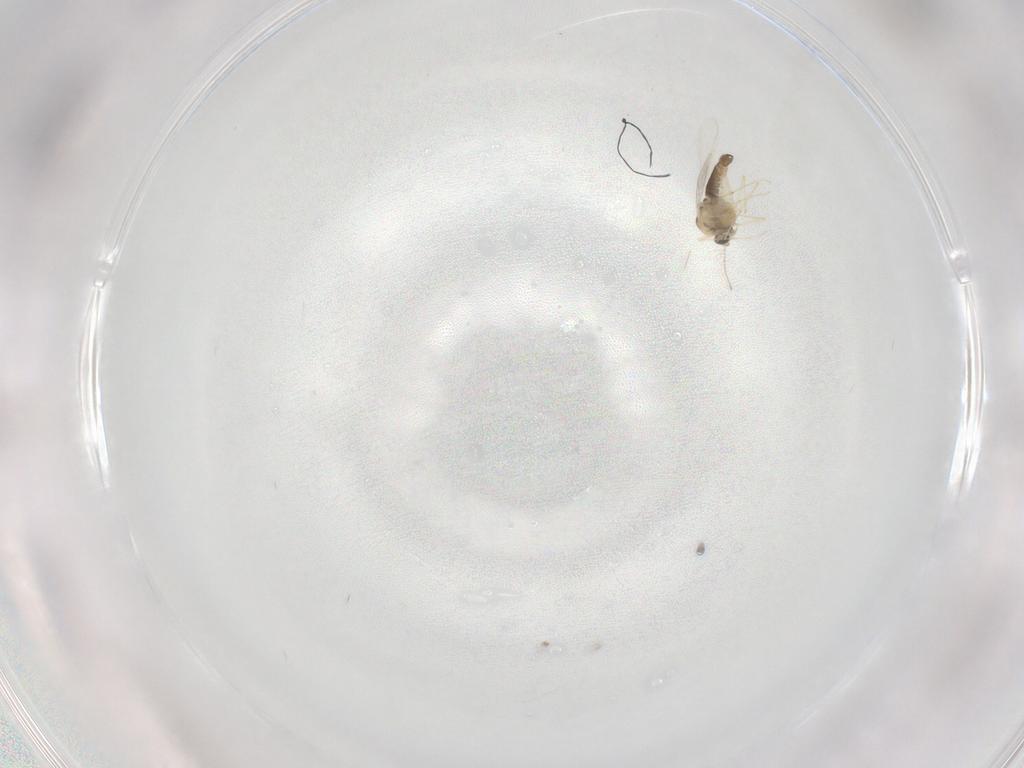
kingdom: Animalia
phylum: Arthropoda
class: Insecta
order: Diptera
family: Chironomidae
